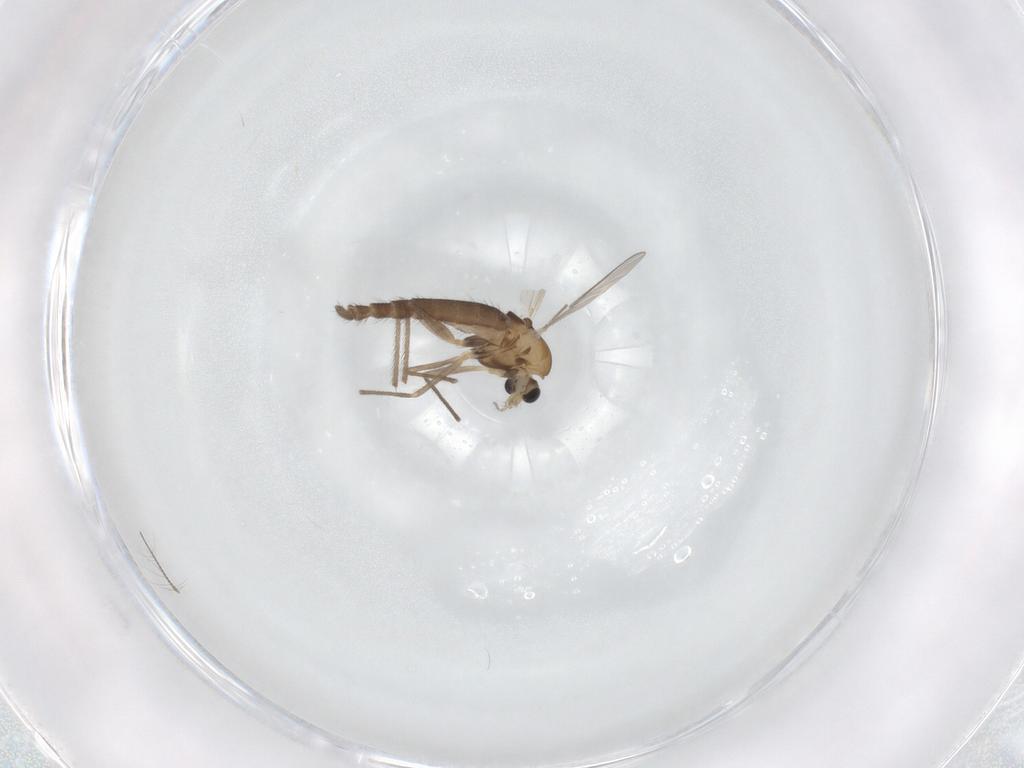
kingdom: Animalia
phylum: Arthropoda
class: Insecta
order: Diptera
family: Chironomidae
